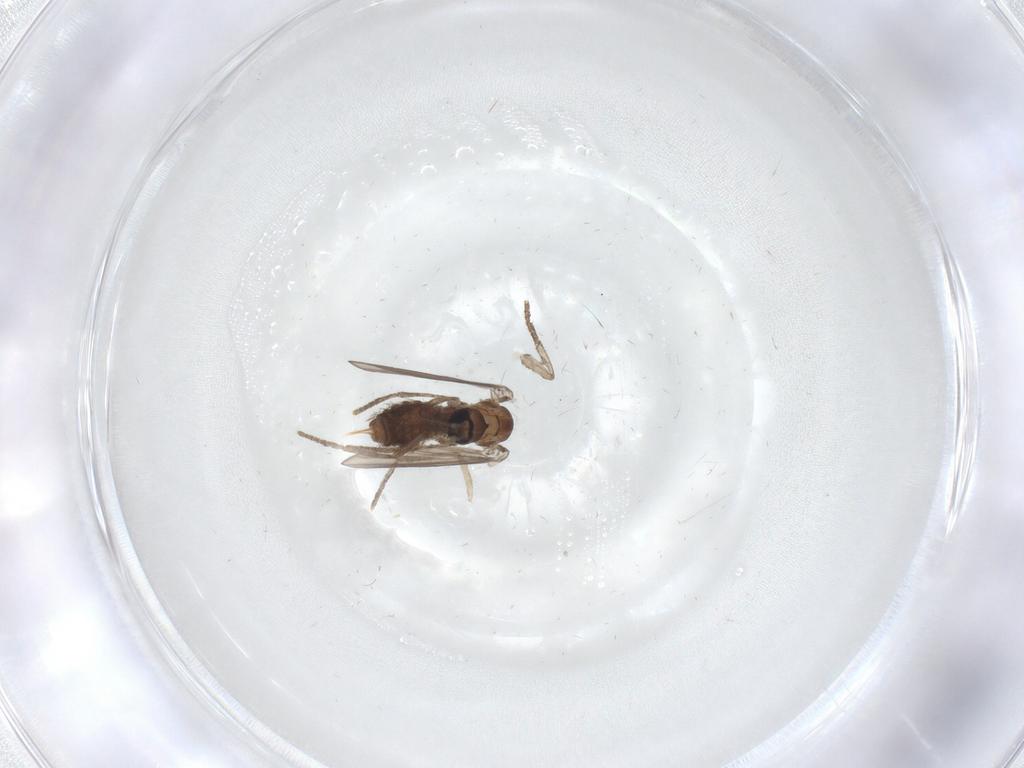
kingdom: Animalia
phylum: Arthropoda
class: Insecta
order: Diptera
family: Psychodidae
